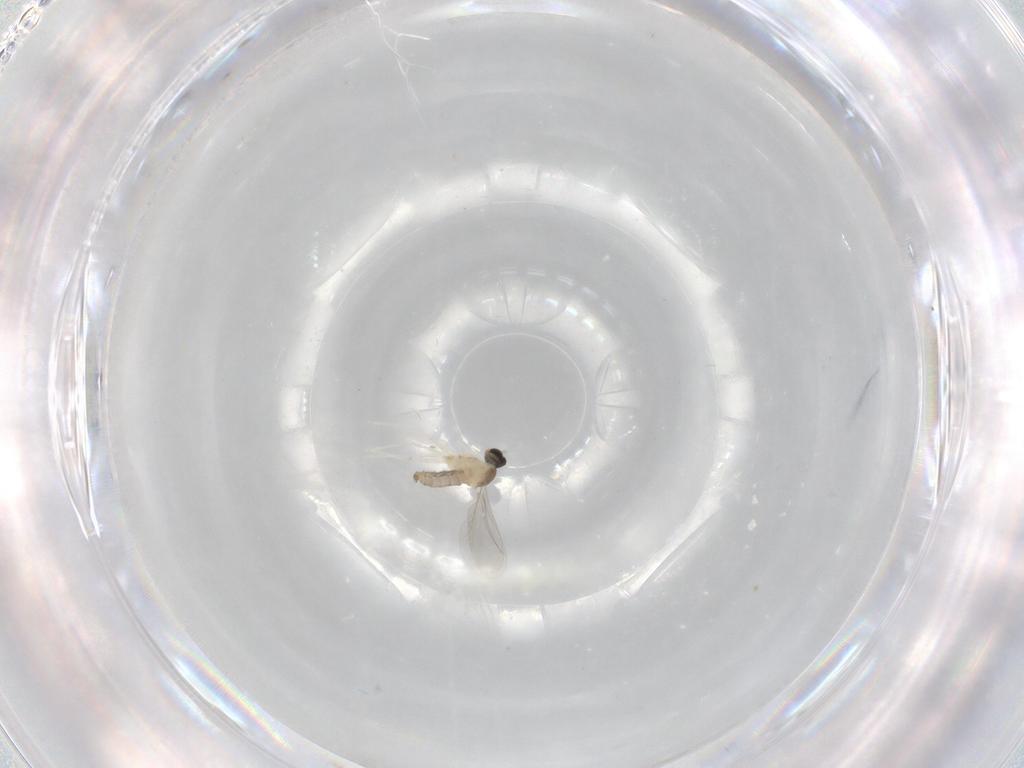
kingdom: Animalia
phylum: Arthropoda
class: Insecta
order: Diptera
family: Cecidomyiidae
